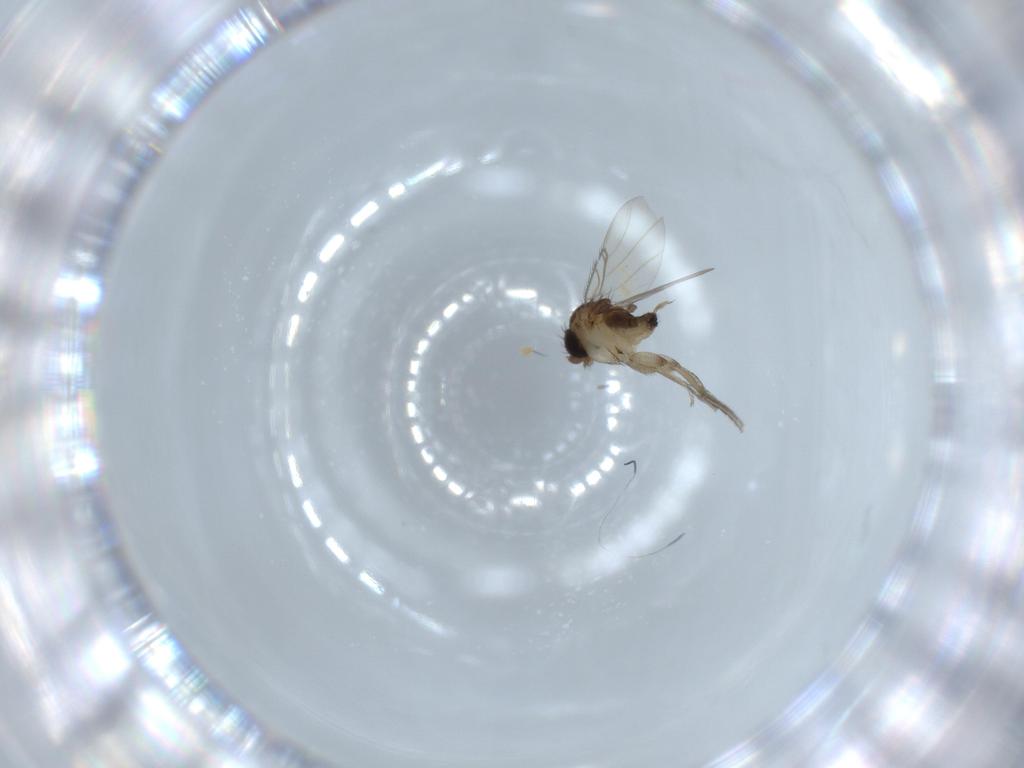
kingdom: Animalia
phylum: Arthropoda
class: Insecta
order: Diptera
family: Phoridae
